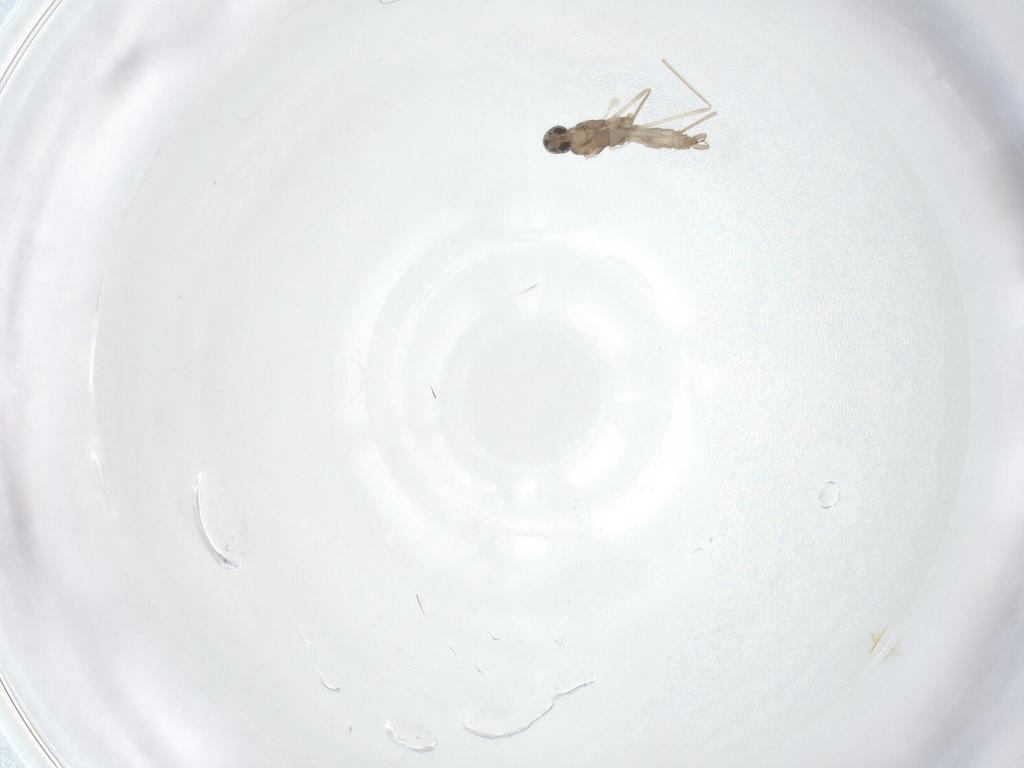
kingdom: Animalia
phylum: Arthropoda
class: Insecta
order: Diptera
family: Cecidomyiidae
